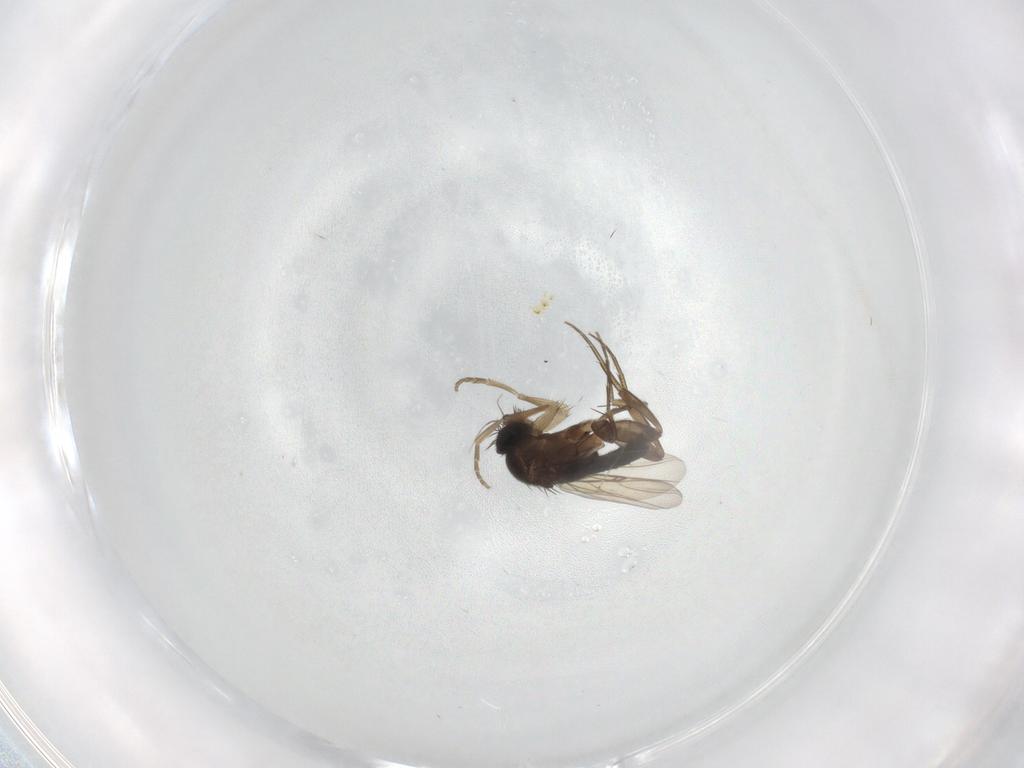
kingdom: Animalia
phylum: Arthropoda
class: Insecta
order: Diptera
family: Phoridae
